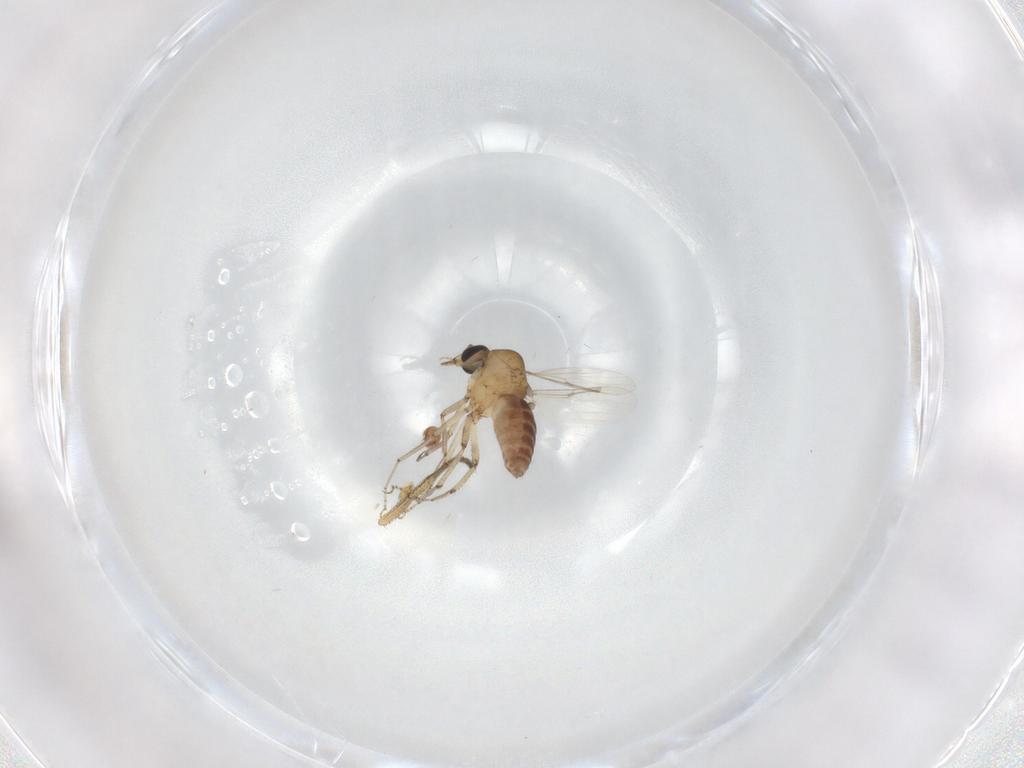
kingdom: Animalia
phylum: Arthropoda
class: Insecta
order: Diptera
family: Ceratopogonidae
